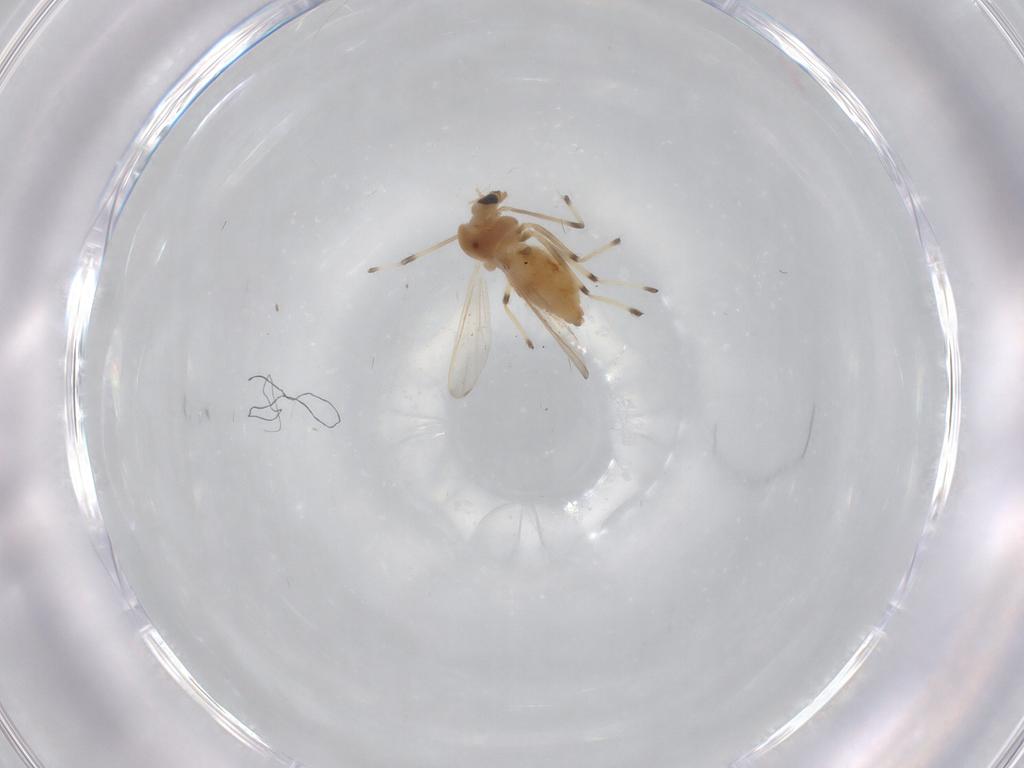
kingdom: Animalia
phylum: Arthropoda
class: Insecta
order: Diptera
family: Chironomidae
